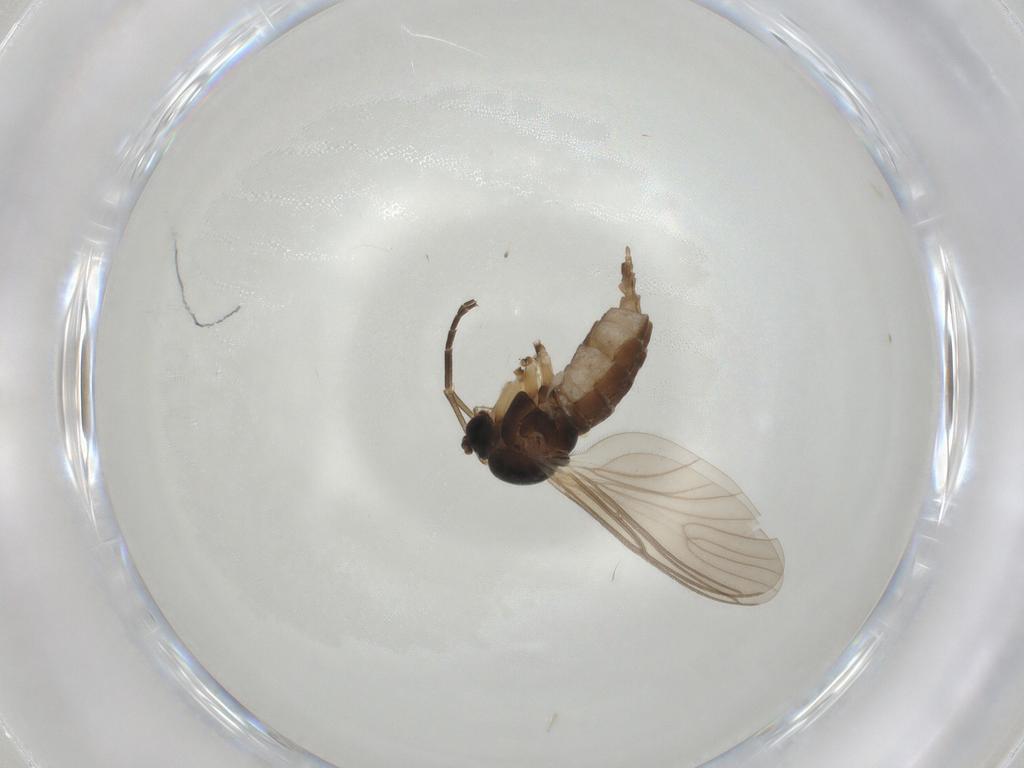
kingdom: Animalia
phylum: Arthropoda
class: Insecta
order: Diptera
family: Sciaridae
